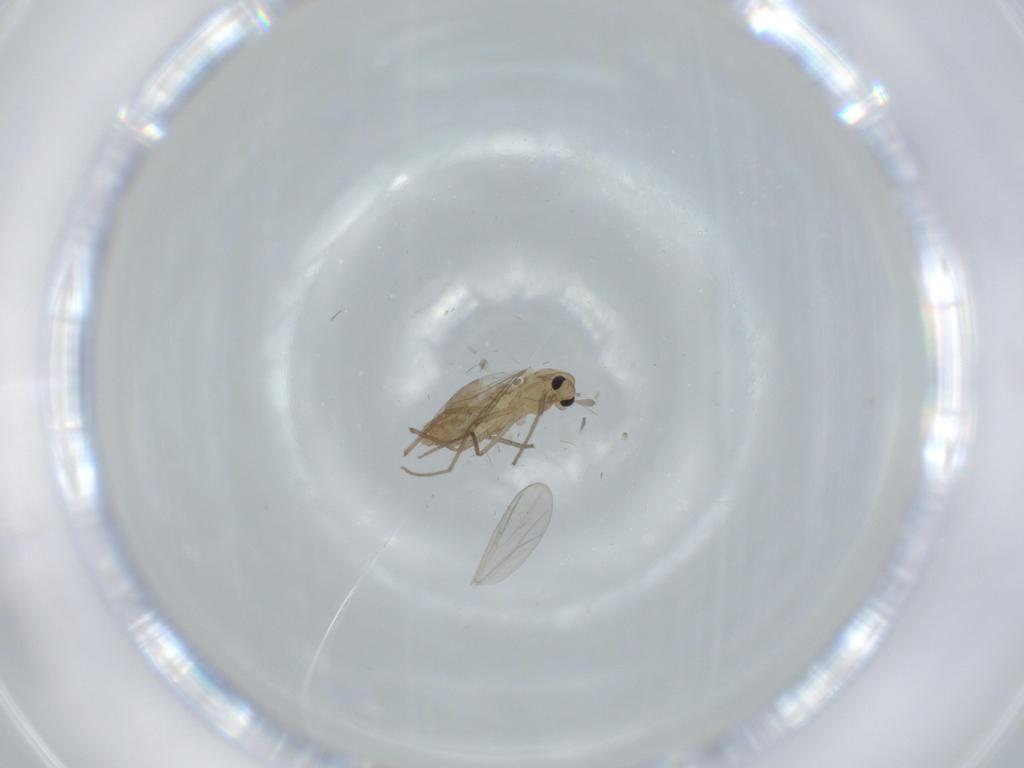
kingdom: Animalia
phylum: Arthropoda
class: Insecta
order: Diptera
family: Chironomidae
